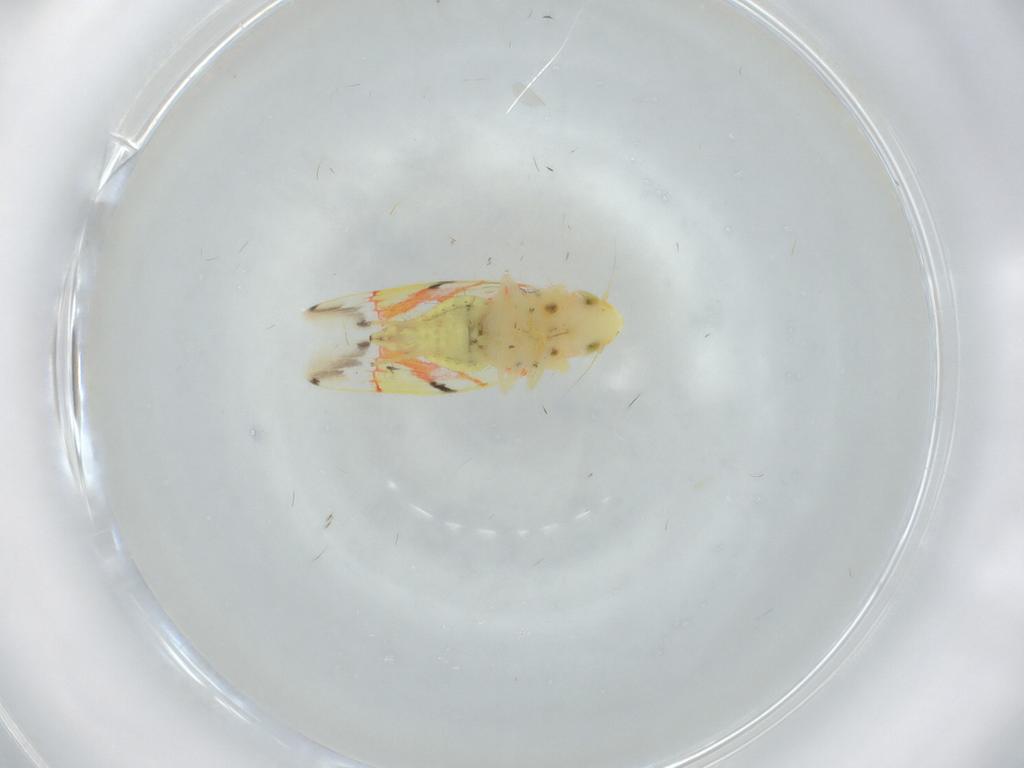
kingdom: Animalia
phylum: Arthropoda
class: Insecta
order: Hemiptera
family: Cicadellidae
